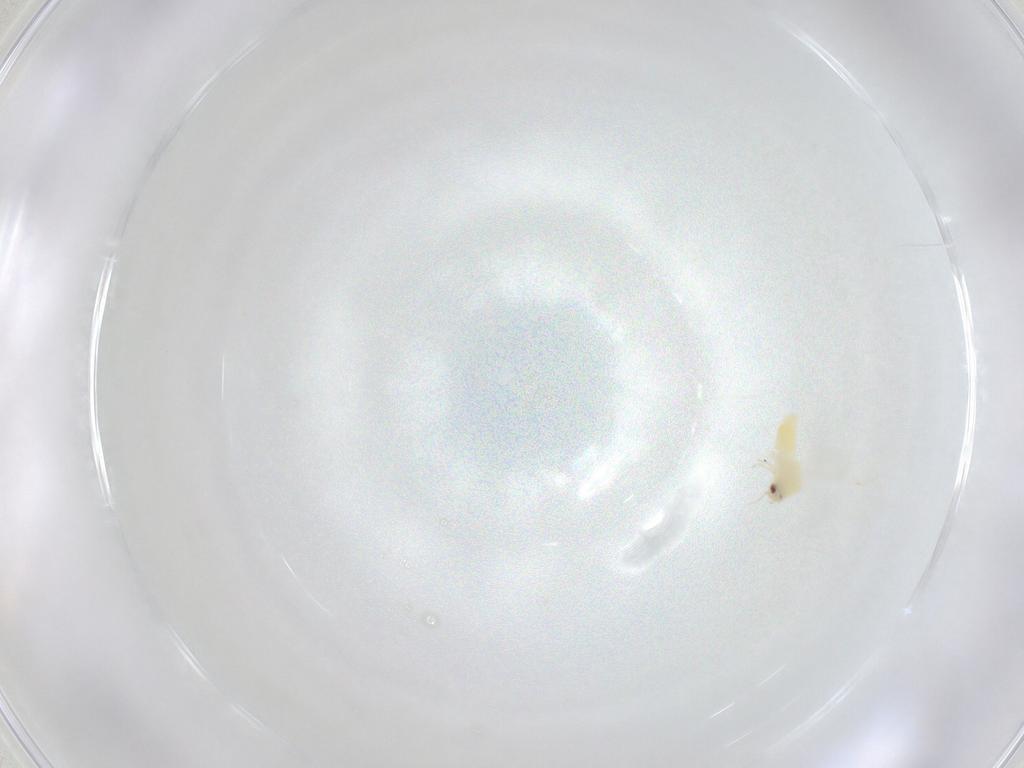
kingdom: Animalia
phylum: Arthropoda
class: Insecta
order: Hemiptera
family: Aleyrodidae
